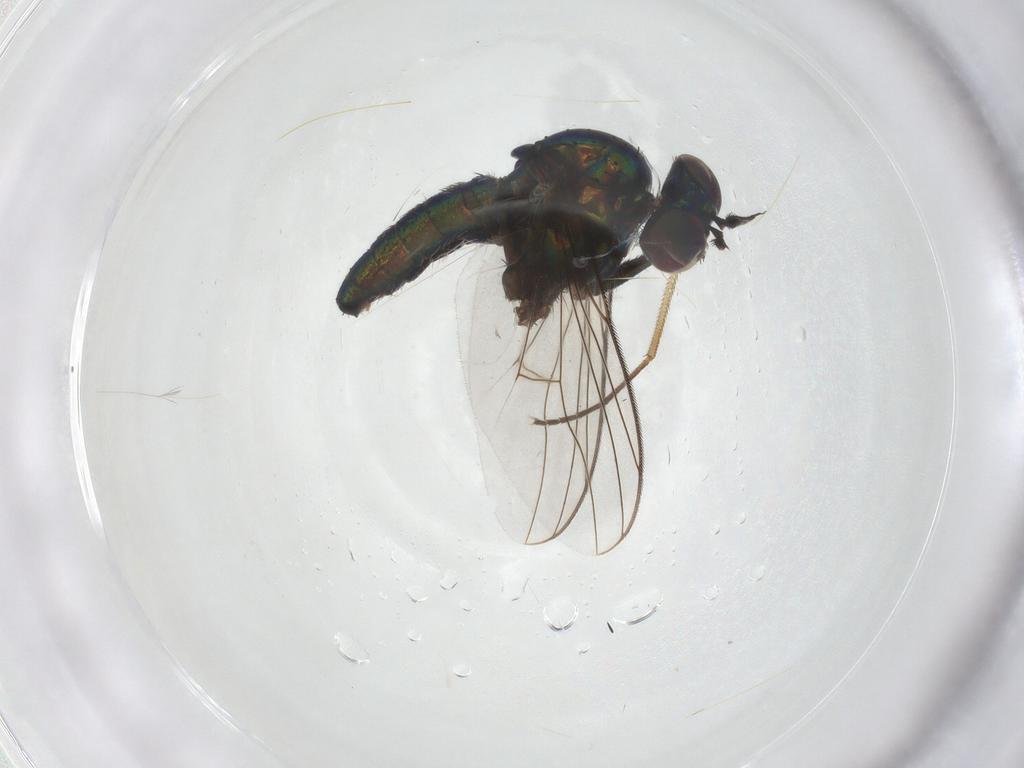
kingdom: Animalia
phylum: Arthropoda
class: Insecta
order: Diptera
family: Dolichopodidae
